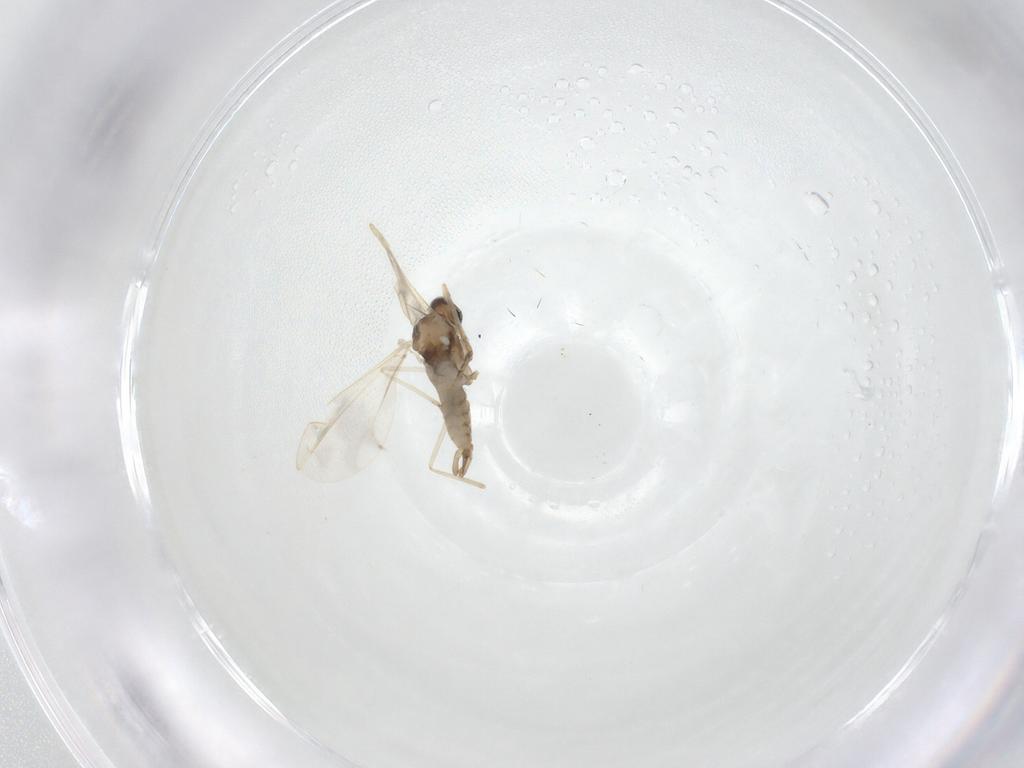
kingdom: Animalia
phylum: Arthropoda
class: Insecta
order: Diptera
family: Cecidomyiidae
